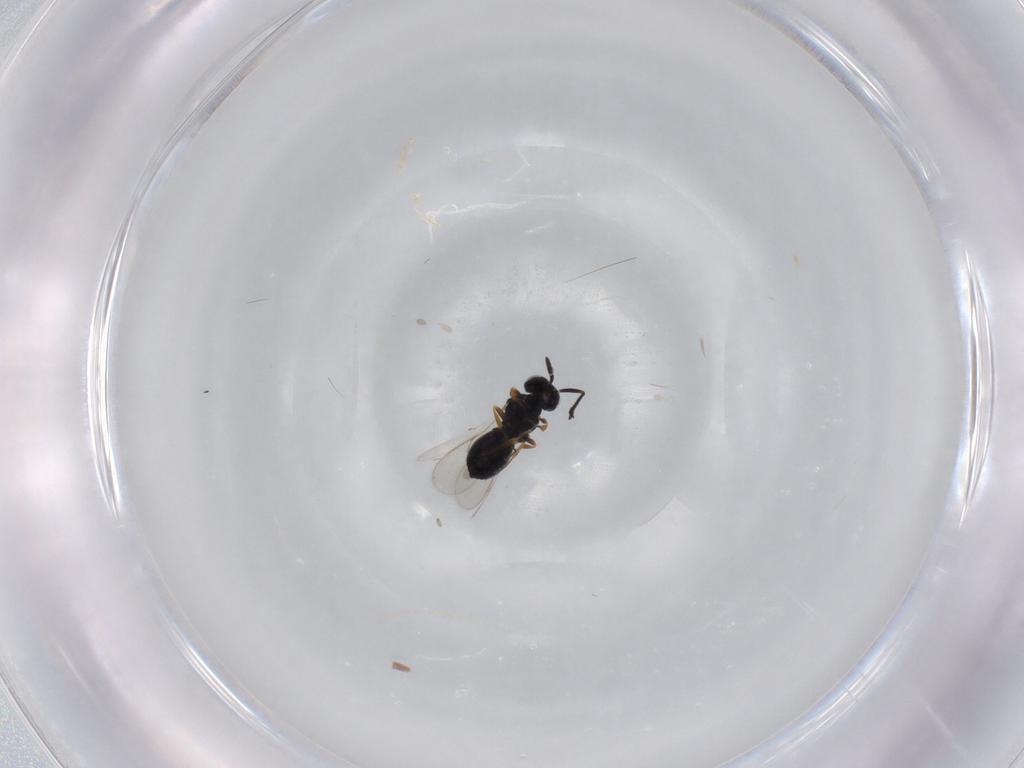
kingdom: Animalia
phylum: Arthropoda
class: Insecta
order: Hymenoptera
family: Scelionidae
